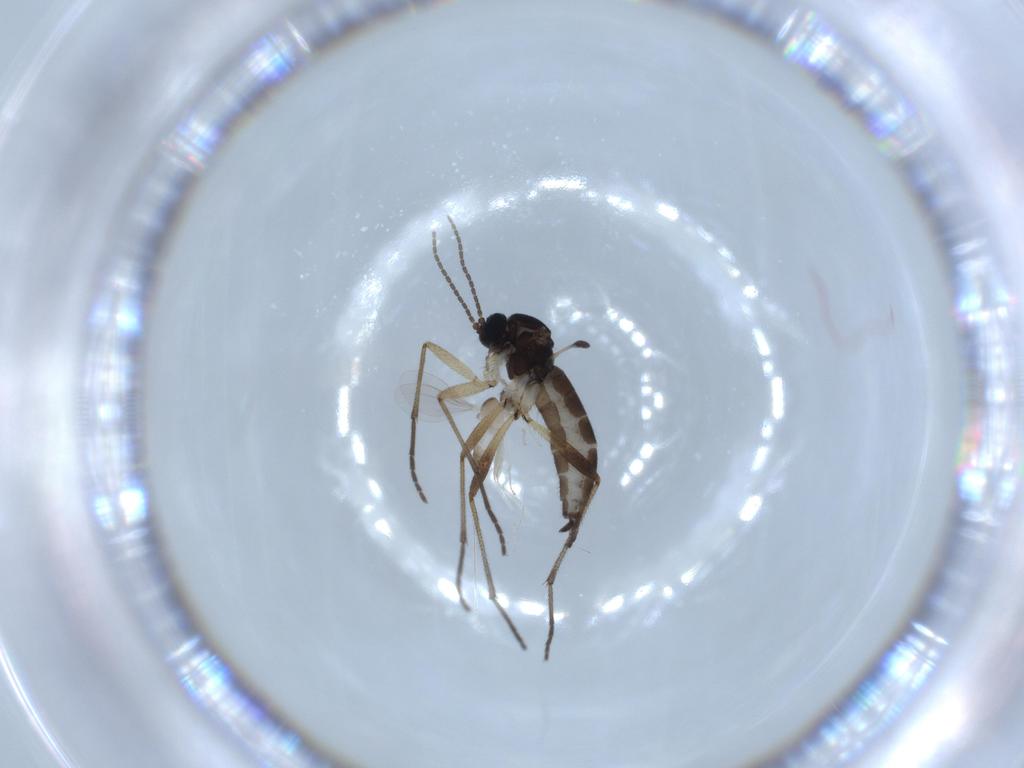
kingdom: Animalia
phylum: Arthropoda
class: Insecta
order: Diptera
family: Sciaridae
